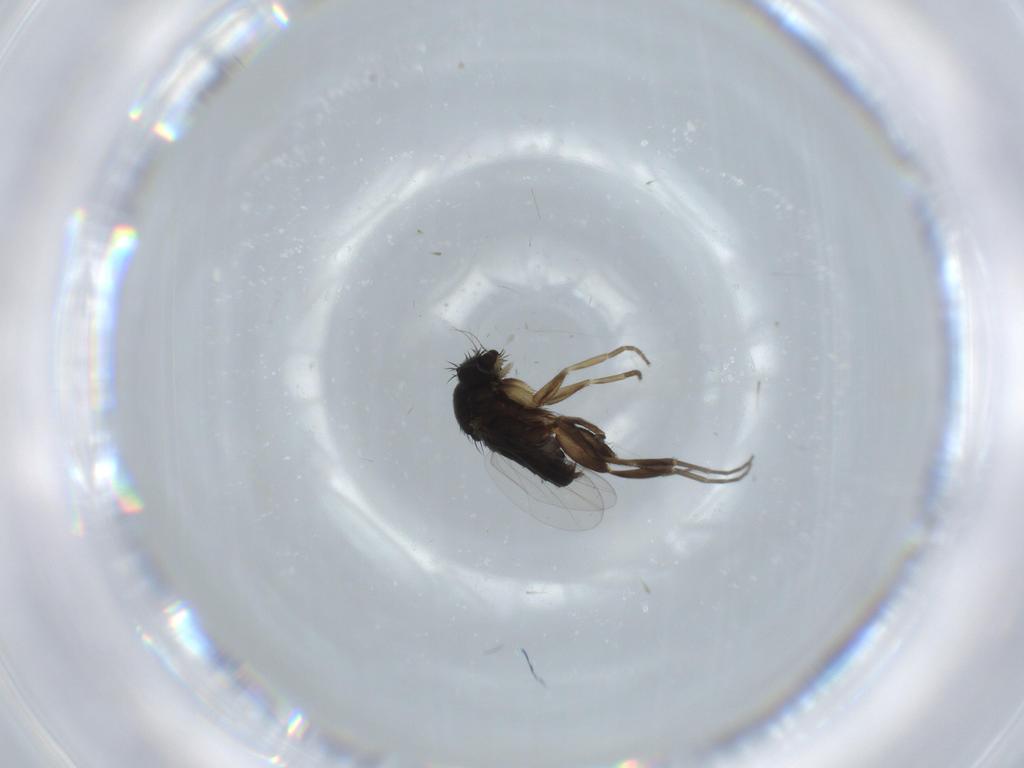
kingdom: Animalia
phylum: Arthropoda
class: Insecta
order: Diptera
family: Phoridae
